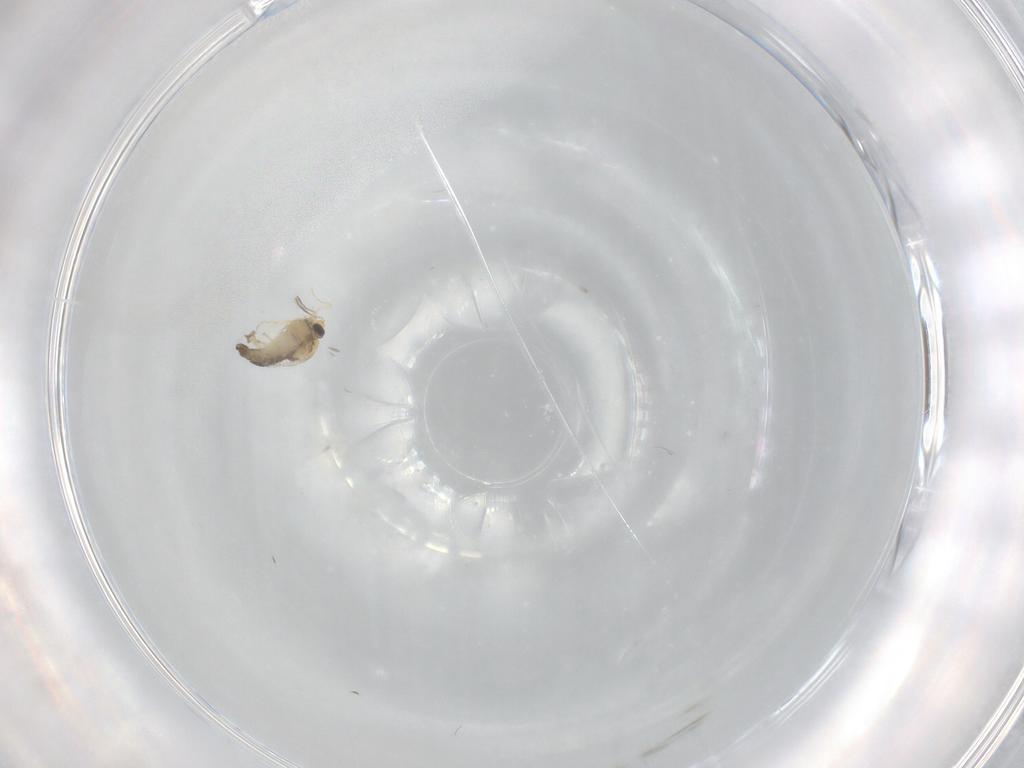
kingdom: Animalia
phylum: Arthropoda
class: Insecta
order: Diptera
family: Chironomidae
